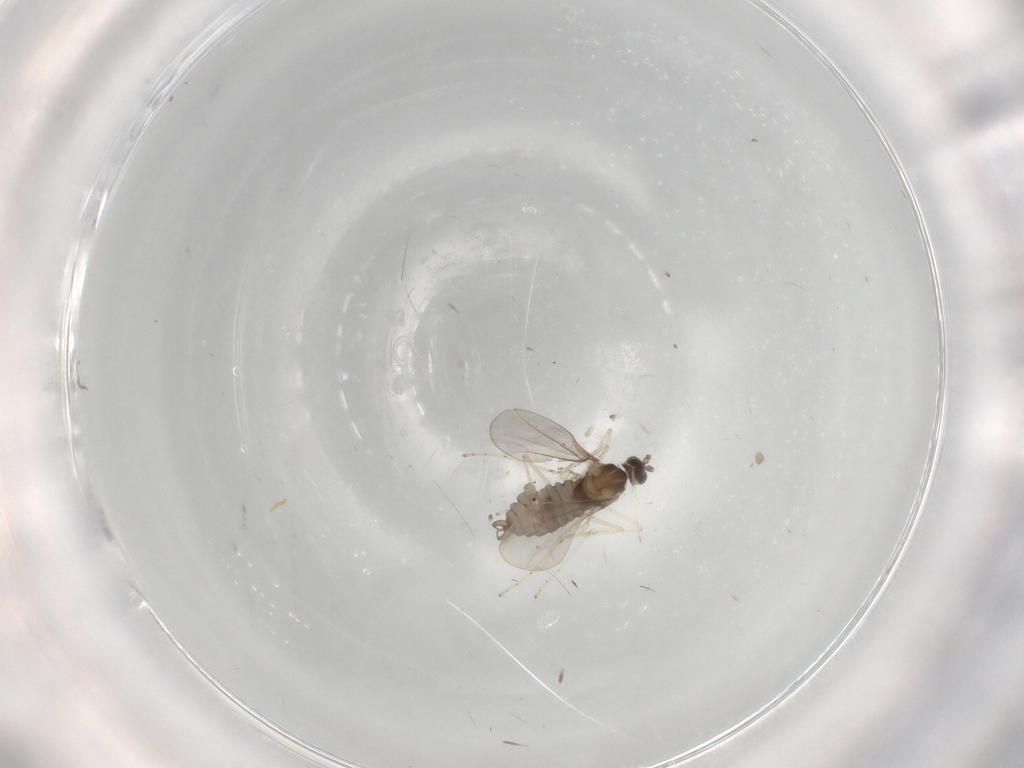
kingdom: Animalia
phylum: Arthropoda
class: Insecta
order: Diptera
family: Cecidomyiidae
